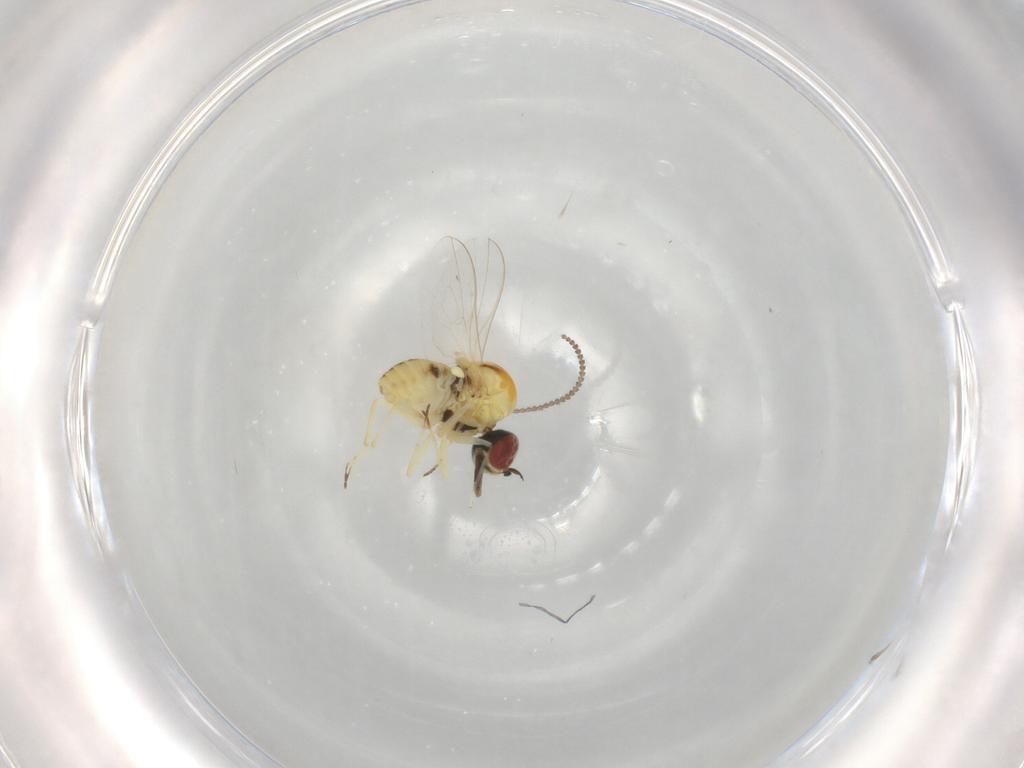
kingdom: Animalia
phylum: Arthropoda
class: Insecta
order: Diptera
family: Bombyliidae
